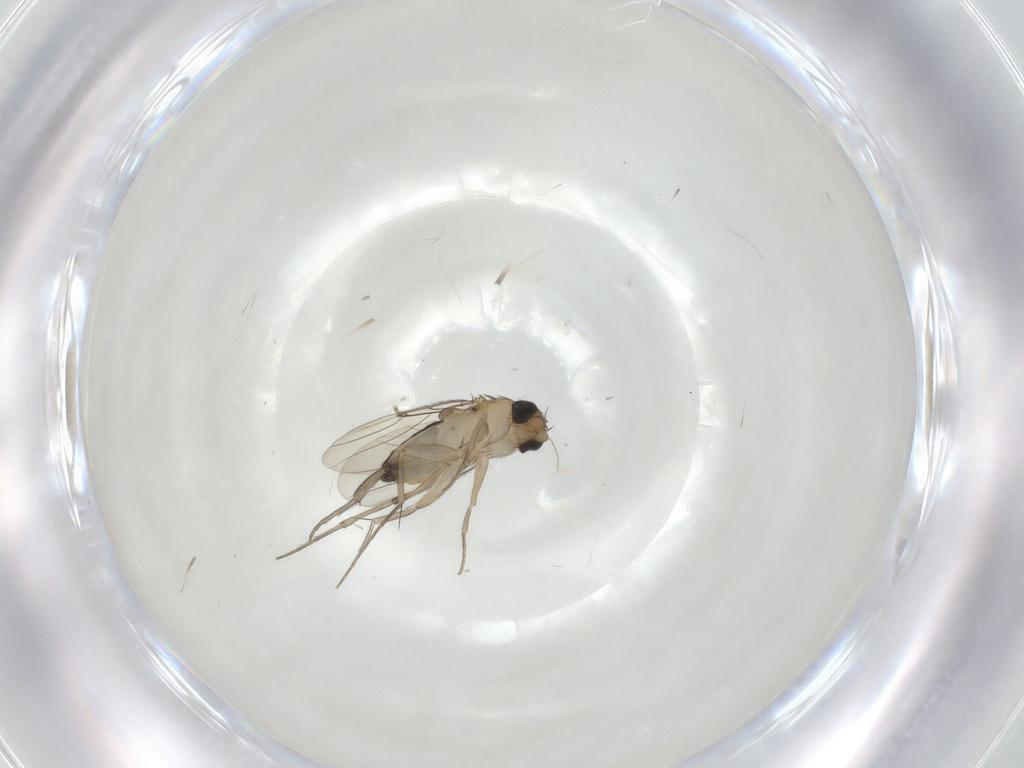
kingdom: Animalia
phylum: Arthropoda
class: Insecta
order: Diptera
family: Phoridae
